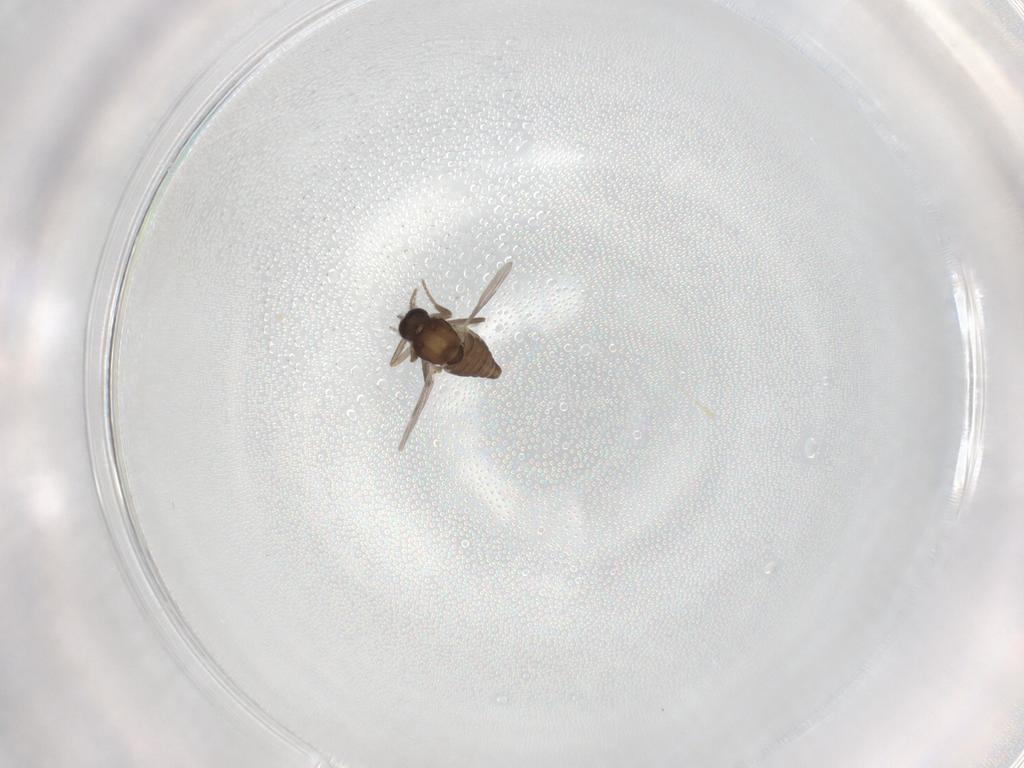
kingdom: Animalia
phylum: Arthropoda
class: Insecta
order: Diptera
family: Ceratopogonidae
